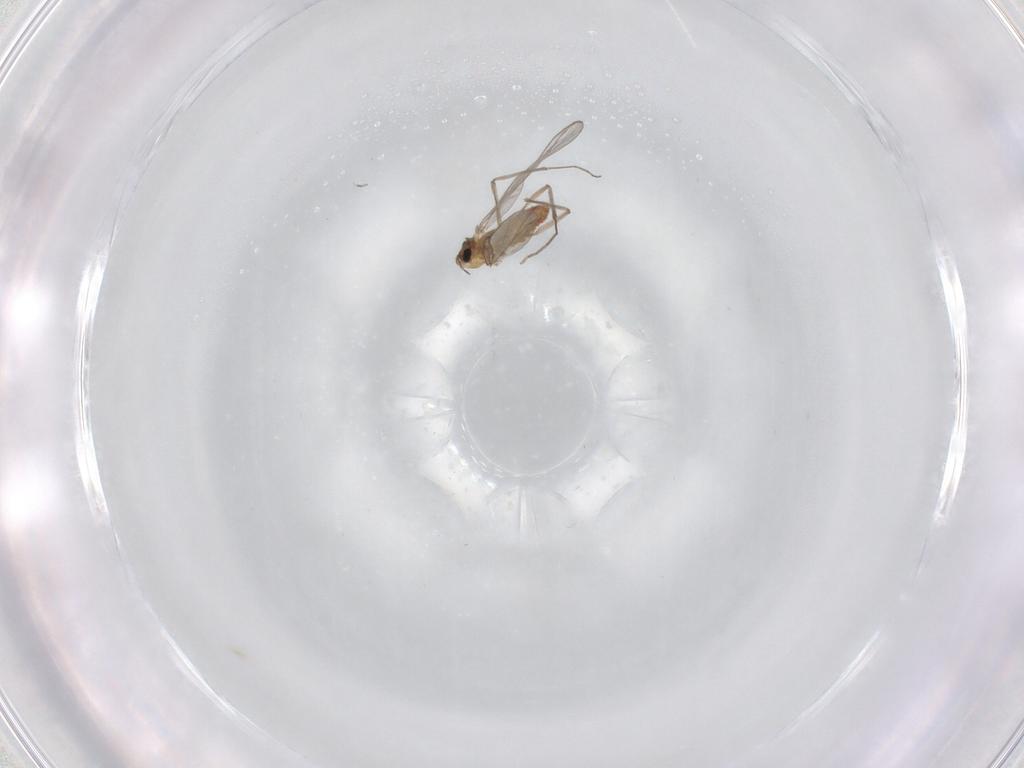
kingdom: Animalia
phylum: Arthropoda
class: Insecta
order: Diptera
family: Chironomidae
